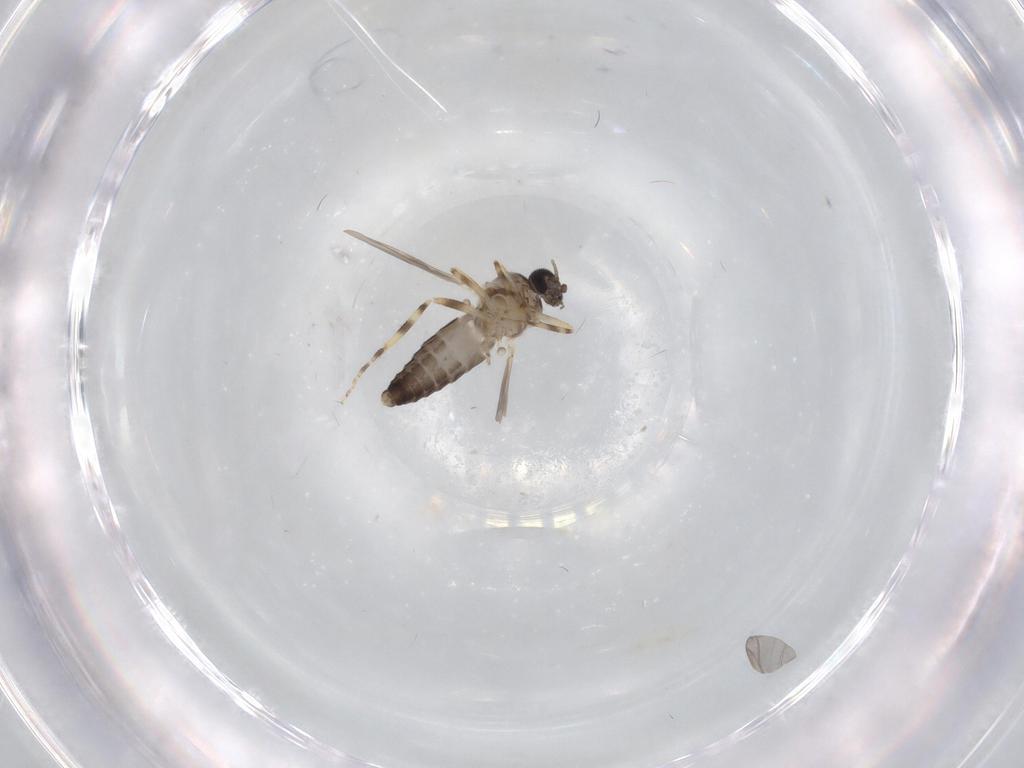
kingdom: Animalia
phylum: Arthropoda
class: Insecta
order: Diptera
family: Ceratopogonidae
